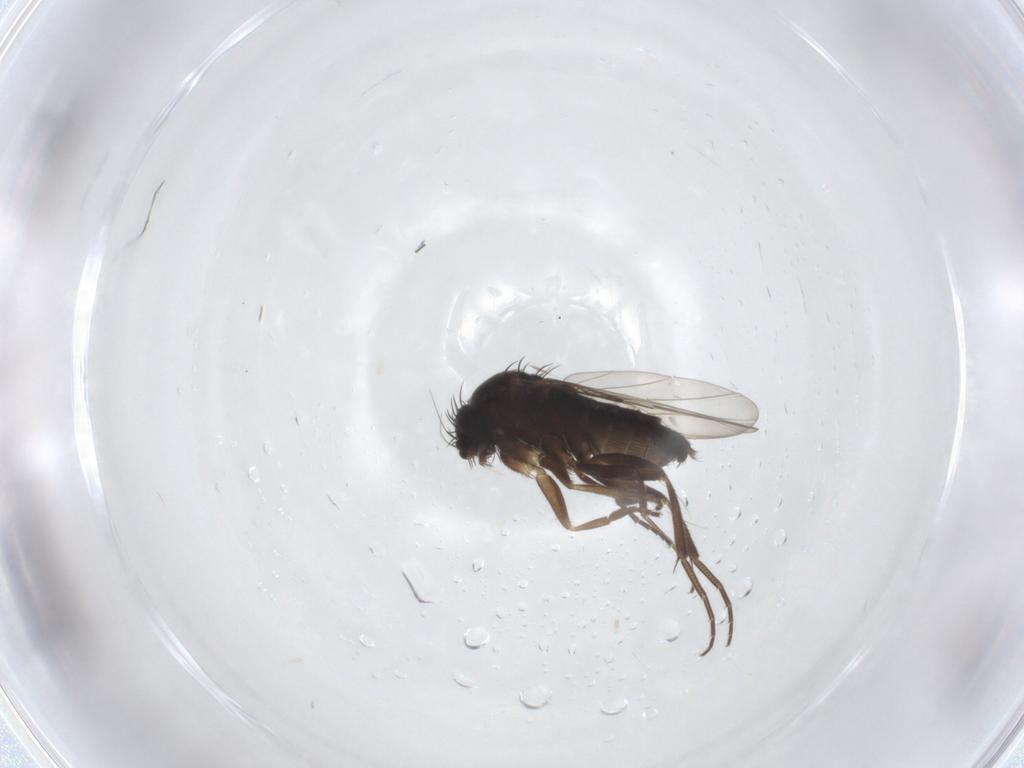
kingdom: Animalia
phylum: Arthropoda
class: Insecta
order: Diptera
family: Phoridae
